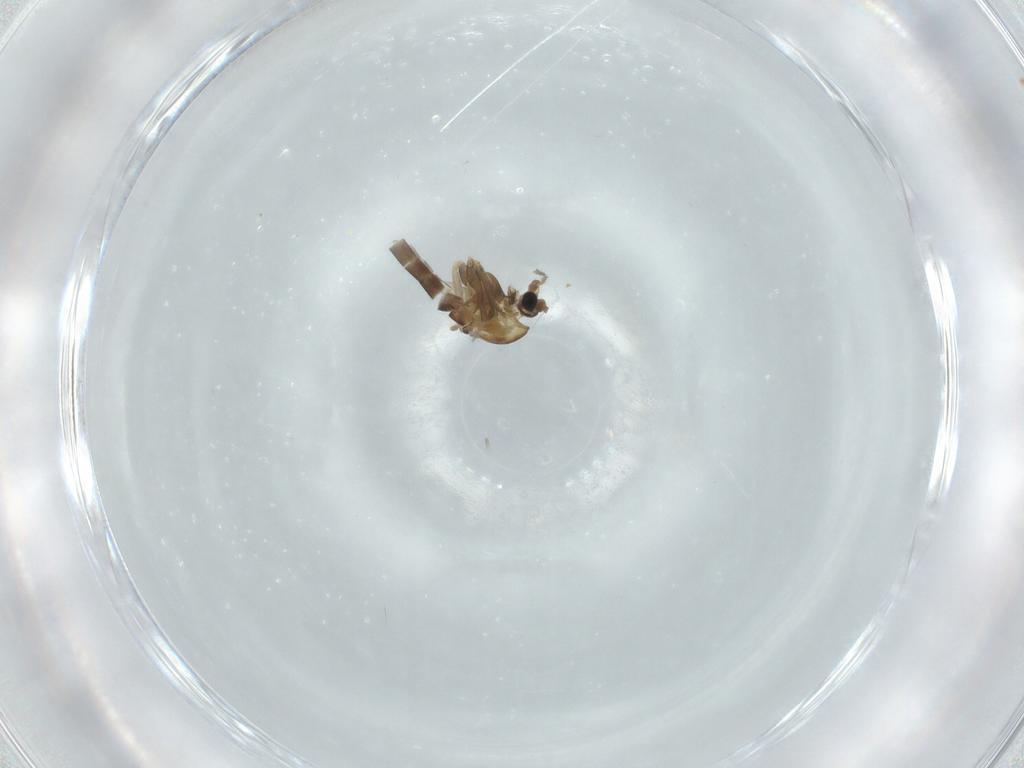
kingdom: Animalia
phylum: Arthropoda
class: Insecta
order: Diptera
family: Chironomidae
